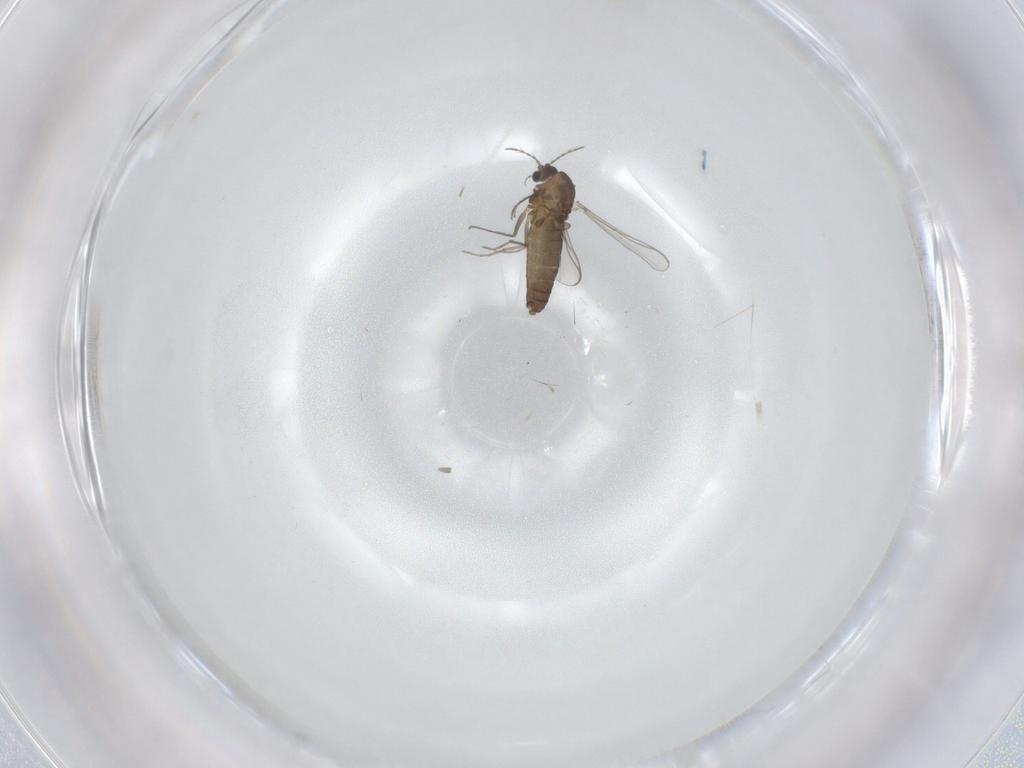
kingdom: Animalia
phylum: Arthropoda
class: Insecta
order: Diptera
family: Chironomidae
